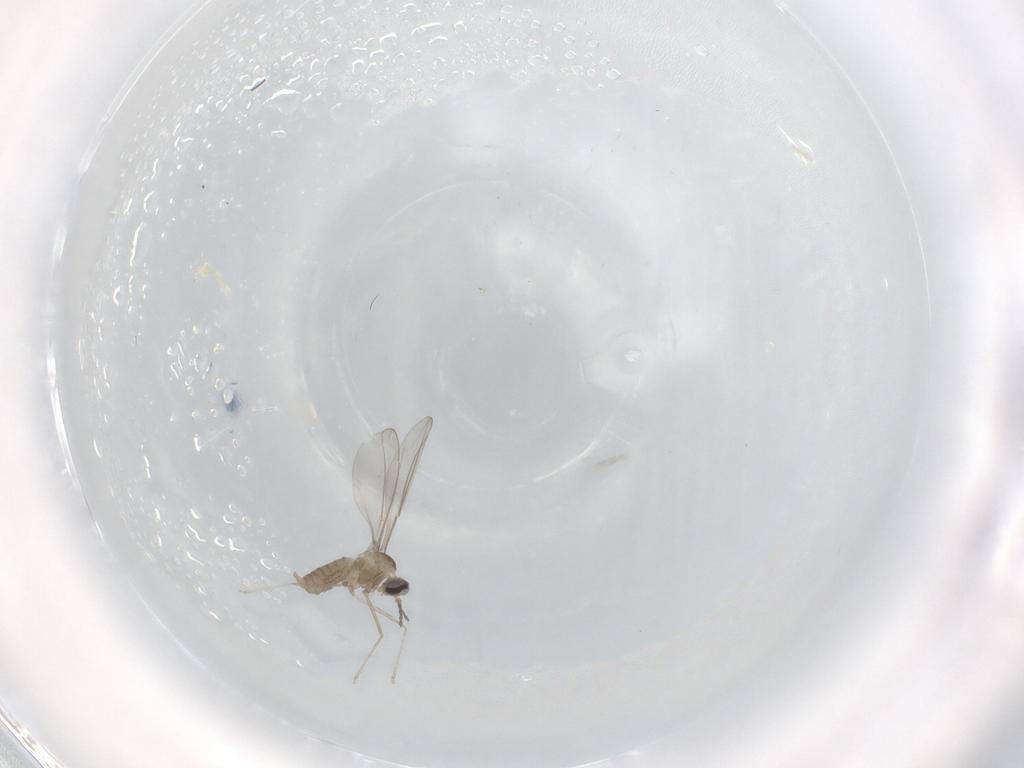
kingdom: Animalia
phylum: Arthropoda
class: Insecta
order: Diptera
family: Cecidomyiidae
